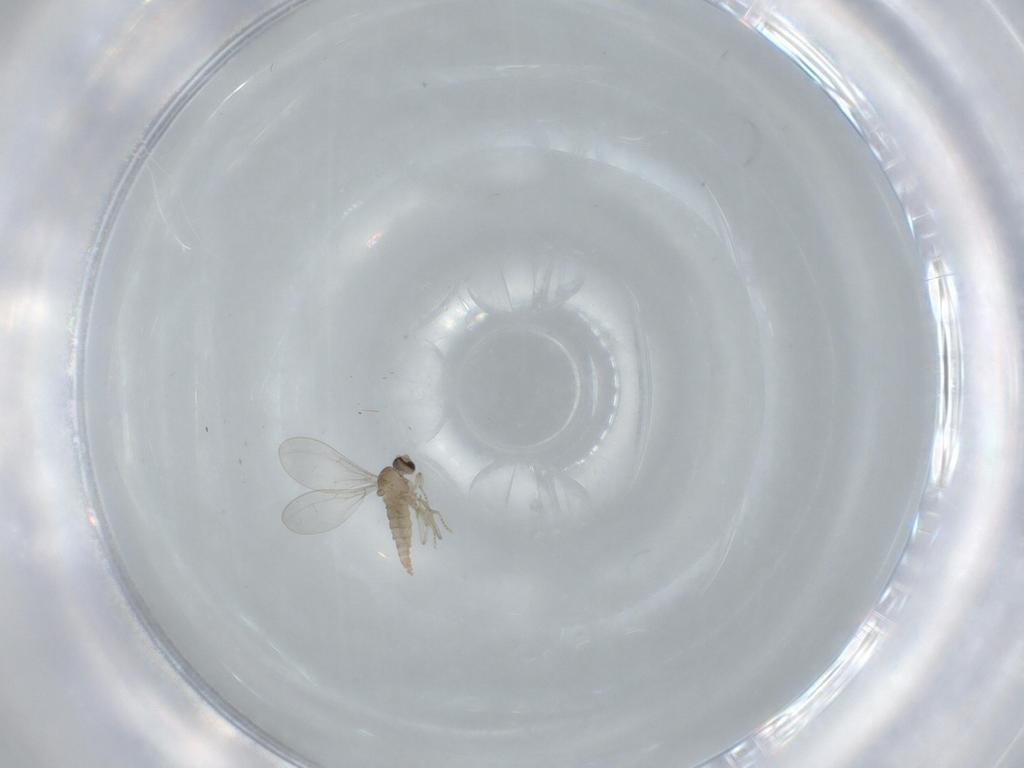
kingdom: Animalia
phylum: Arthropoda
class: Insecta
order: Diptera
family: Cecidomyiidae
